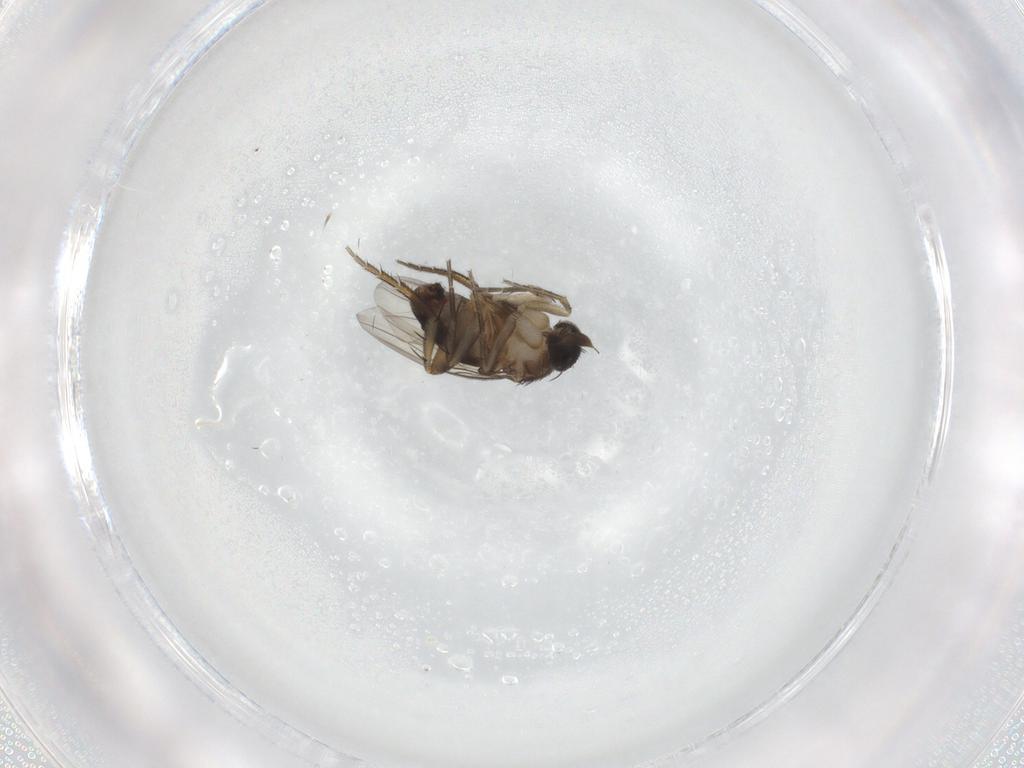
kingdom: Animalia
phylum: Arthropoda
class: Insecta
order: Diptera
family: Phoridae
